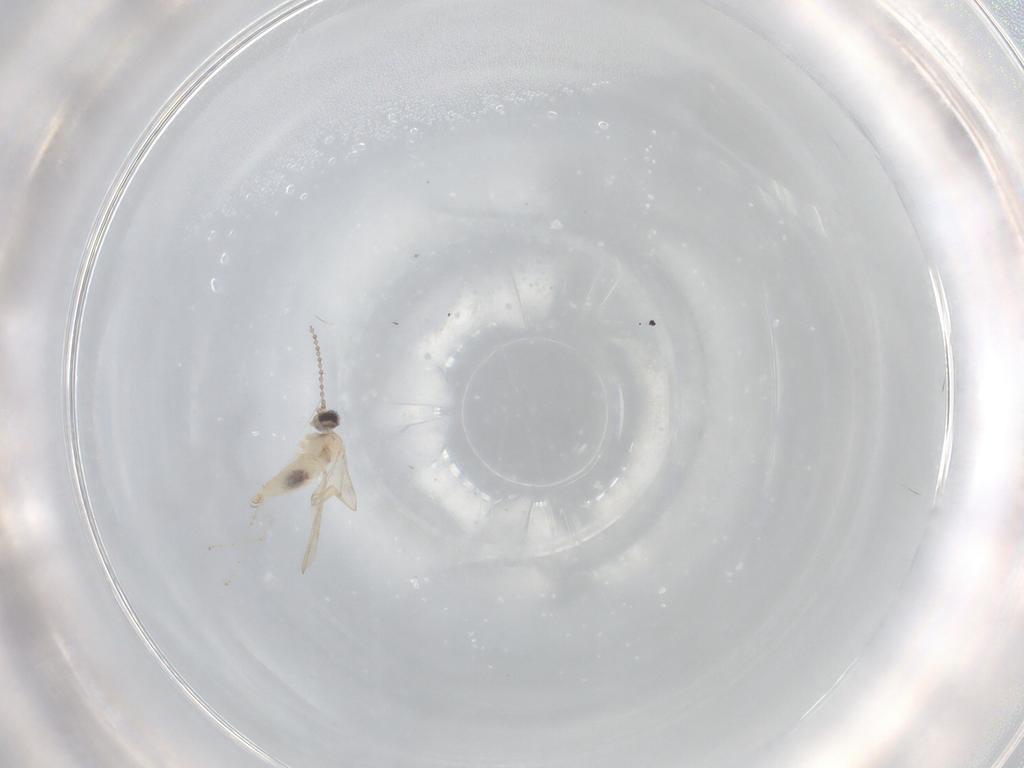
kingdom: Animalia
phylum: Arthropoda
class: Insecta
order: Diptera
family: Cecidomyiidae
